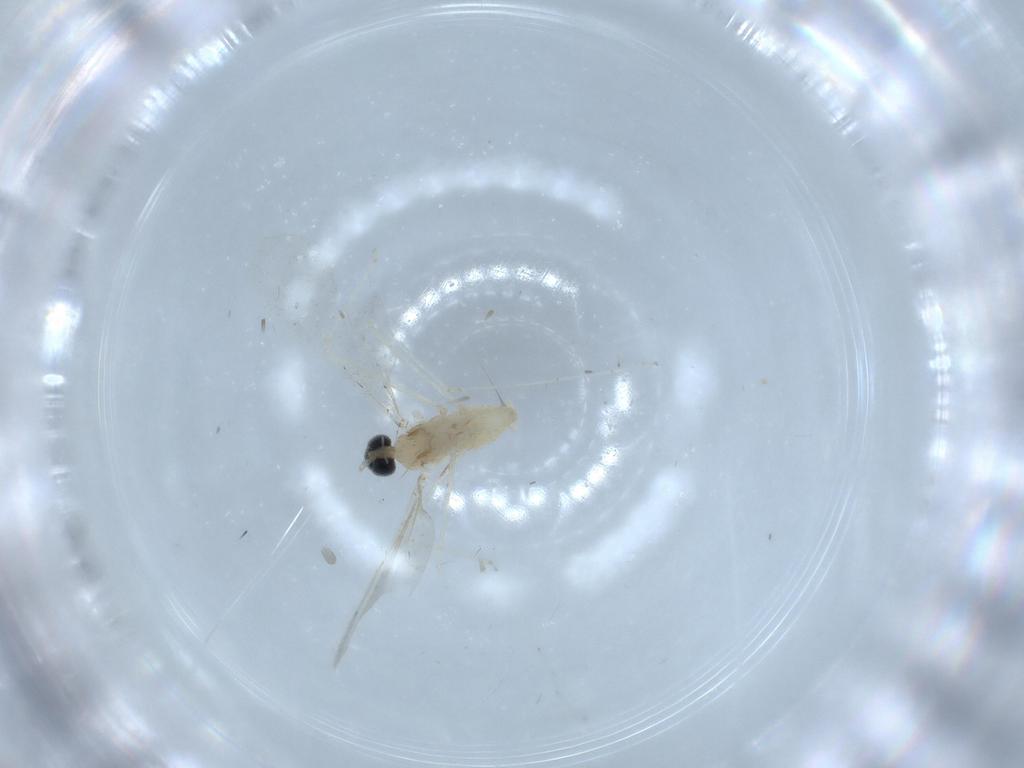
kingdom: Animalia
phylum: Arthropoda
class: Insecta
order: Diptera
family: Cecidomyiidae
